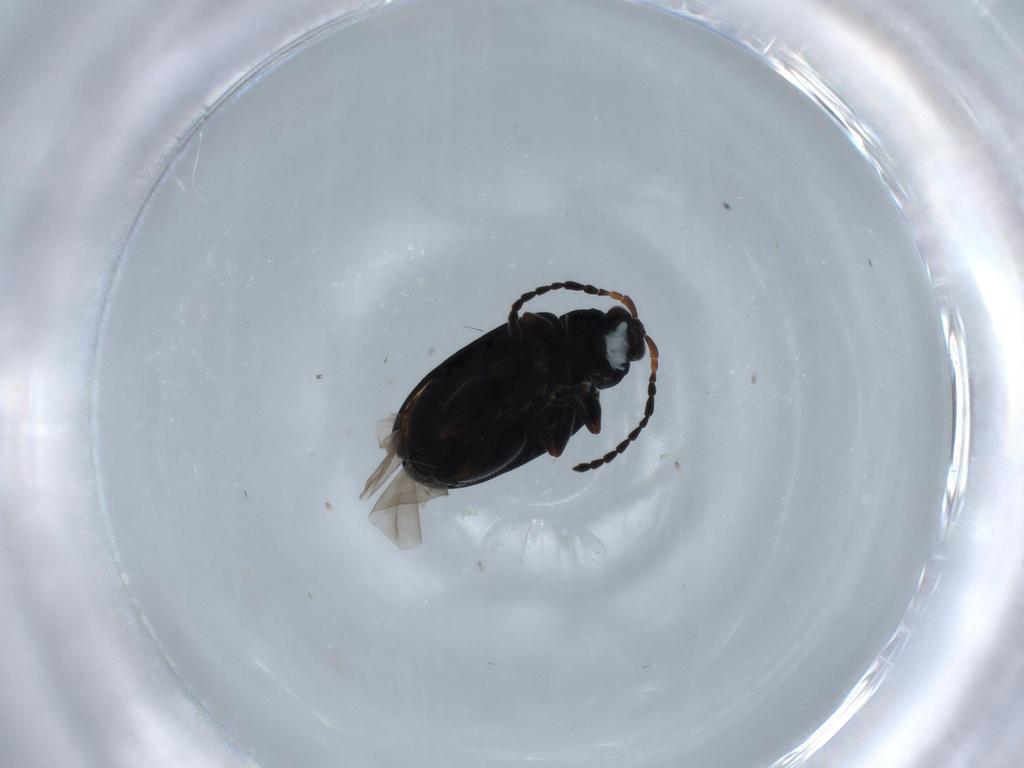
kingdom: Animalia
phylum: Arthropoda
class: Insecta
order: Coleoptera
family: Chrysomelidae
